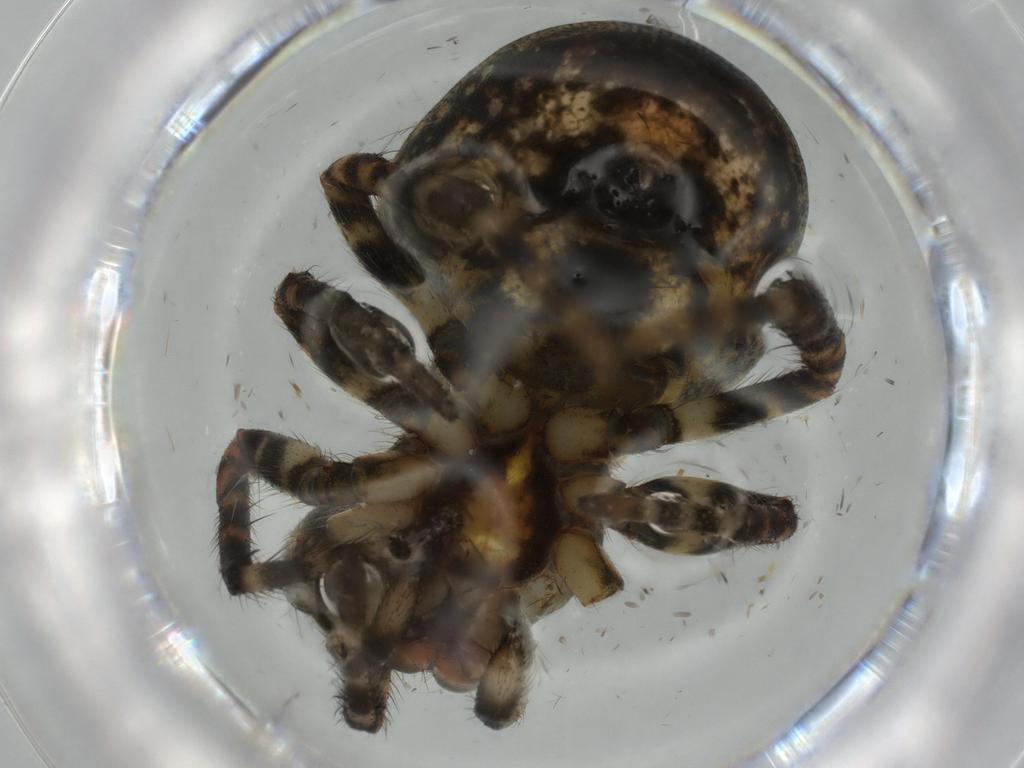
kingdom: Animalia
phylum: Arthropoda
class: Arachnida
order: Araneae
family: Araneidae
